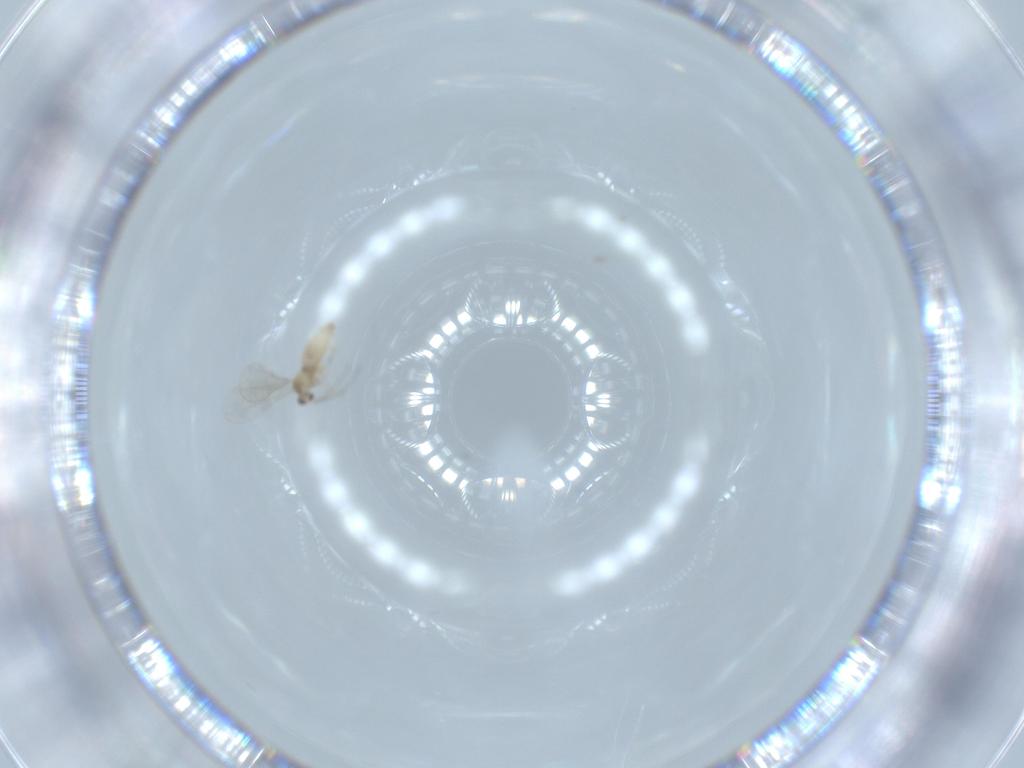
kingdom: Animalia
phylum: Arthropoda
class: Insecta
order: Diptera
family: Cecidomyiidae
